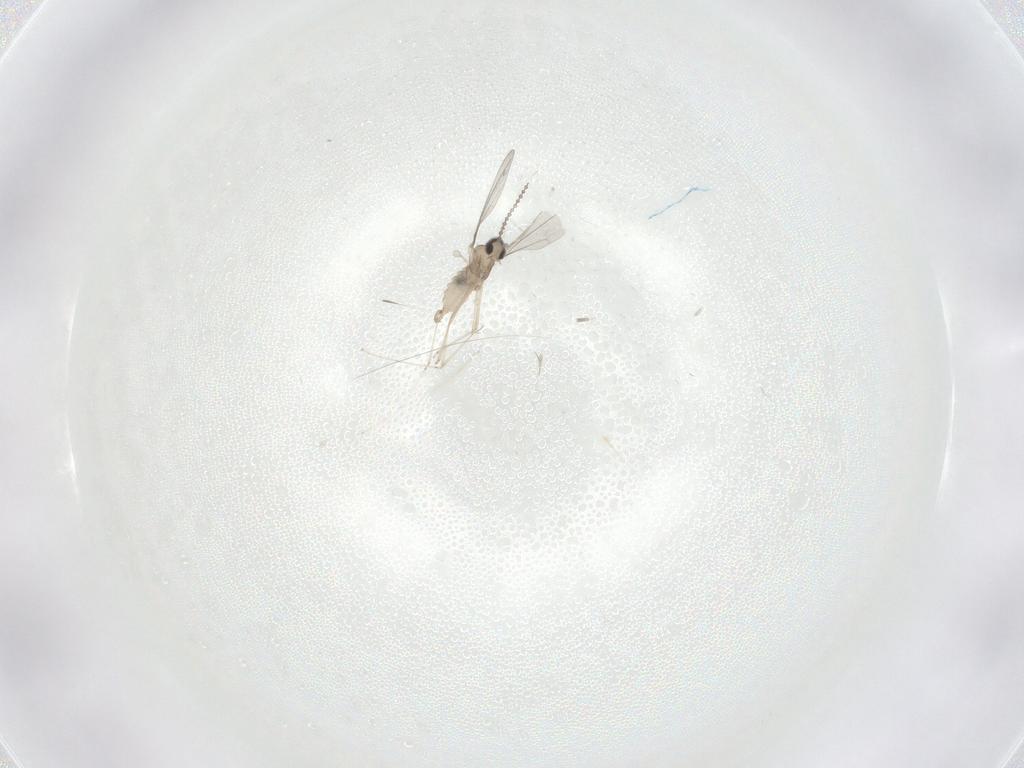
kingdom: Animalia
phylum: Arthropoda
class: Insecta
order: Diptera
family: Cecidomyiidae
